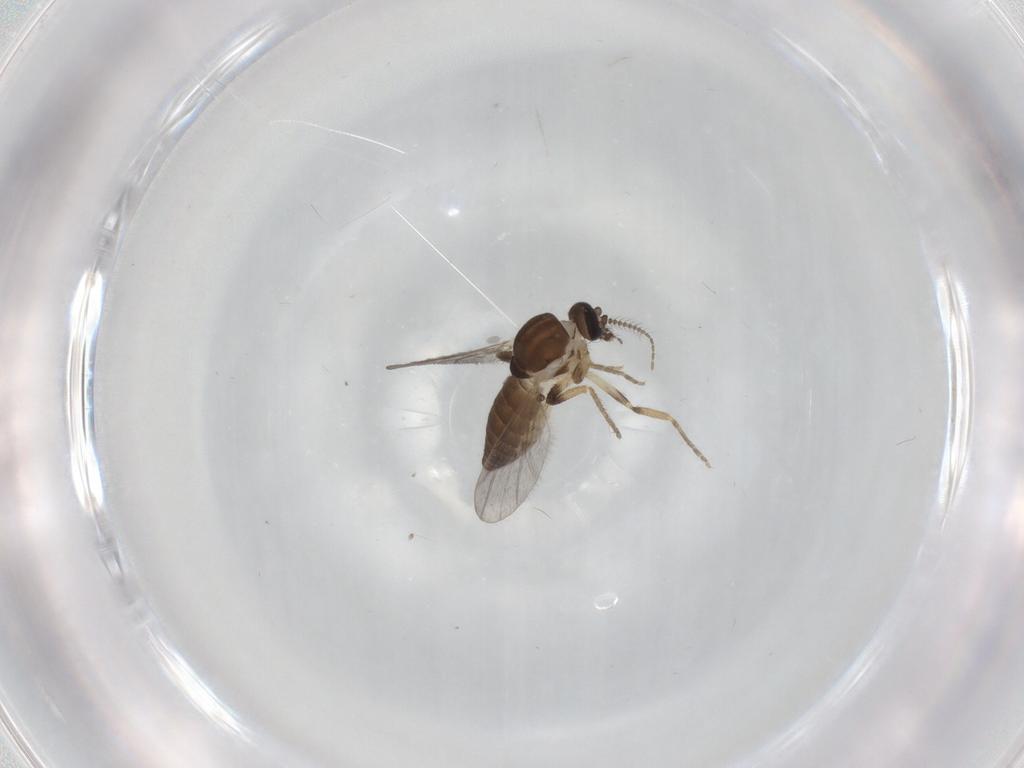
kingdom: Animalia
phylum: Arthropoda
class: Insecta
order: Diptera
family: Ceratopogonidae
